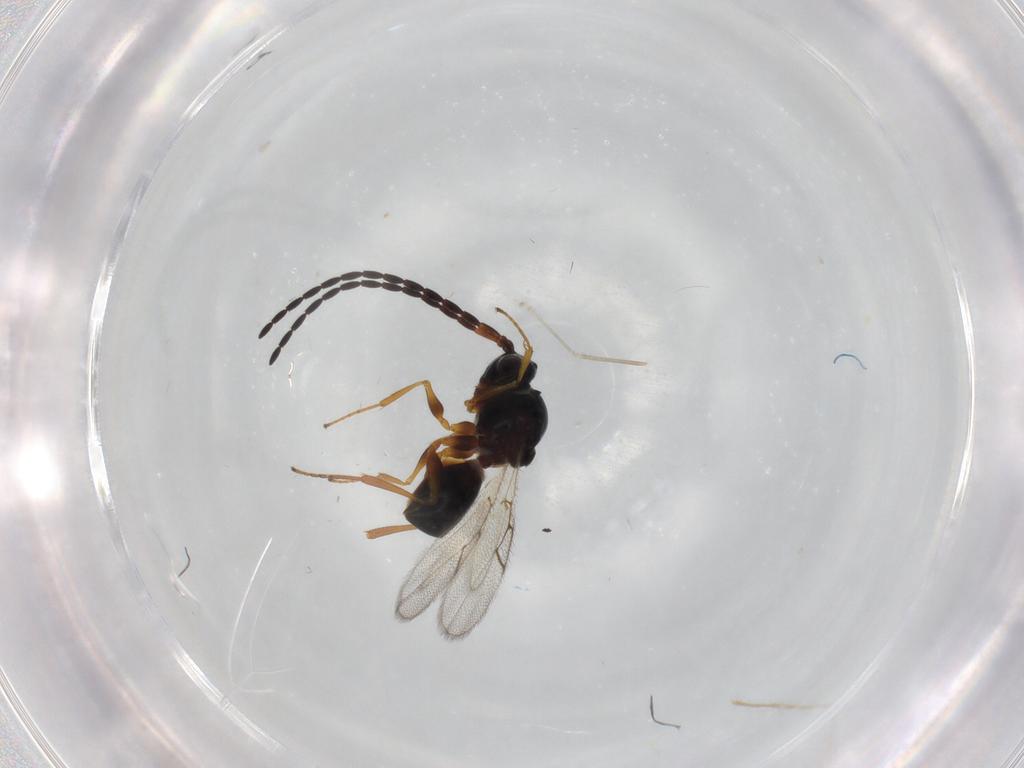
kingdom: Animalia
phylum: Arthropoda
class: Insecta
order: Hymenoptera
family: Figitidae
